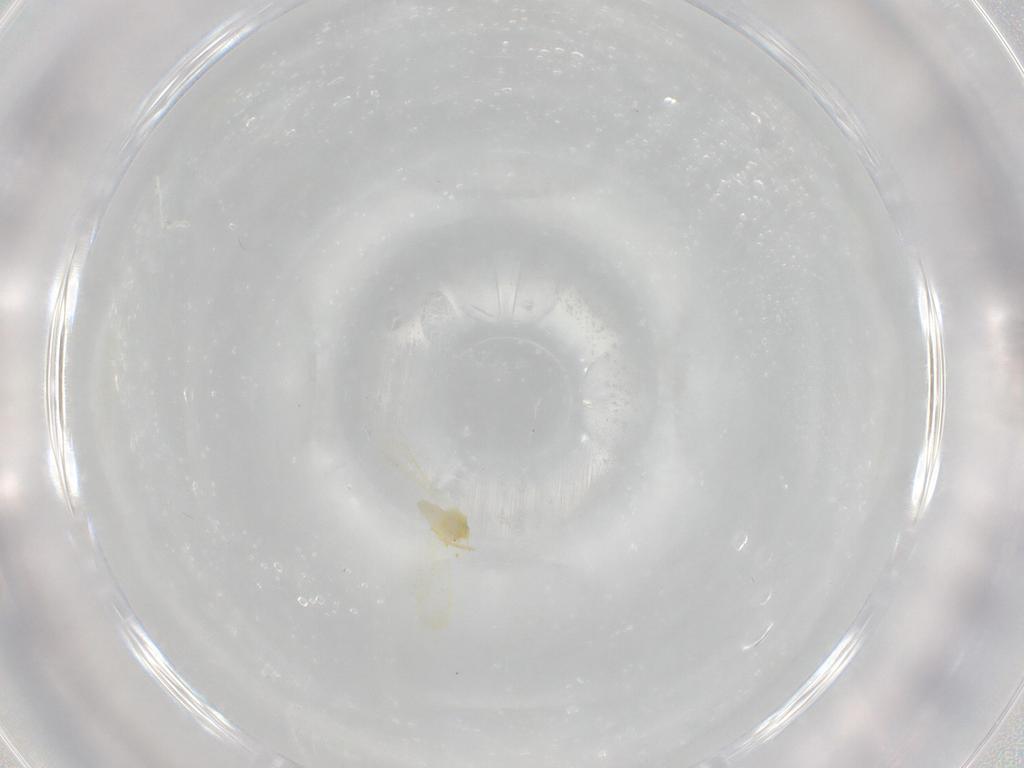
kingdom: Animalia
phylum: Arthropoda
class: Insecta
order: Hemiptera
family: Aleyrodidae
